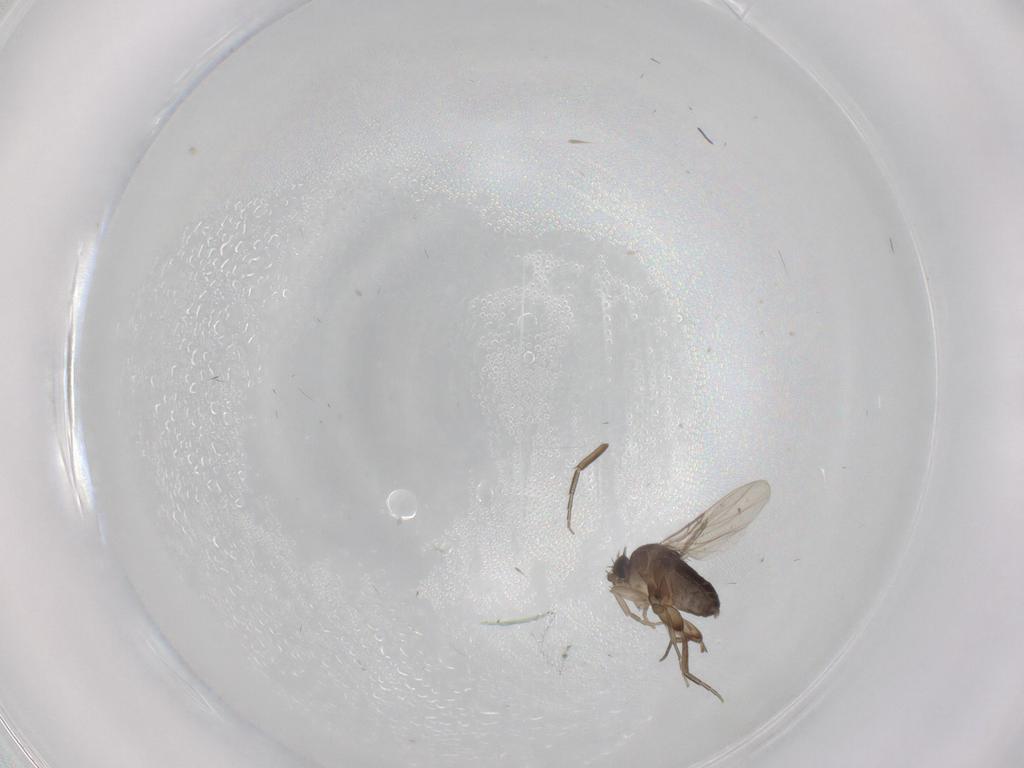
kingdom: Animalia
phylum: Arthropoda
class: Insecta
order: Diptera
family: Phoridae
